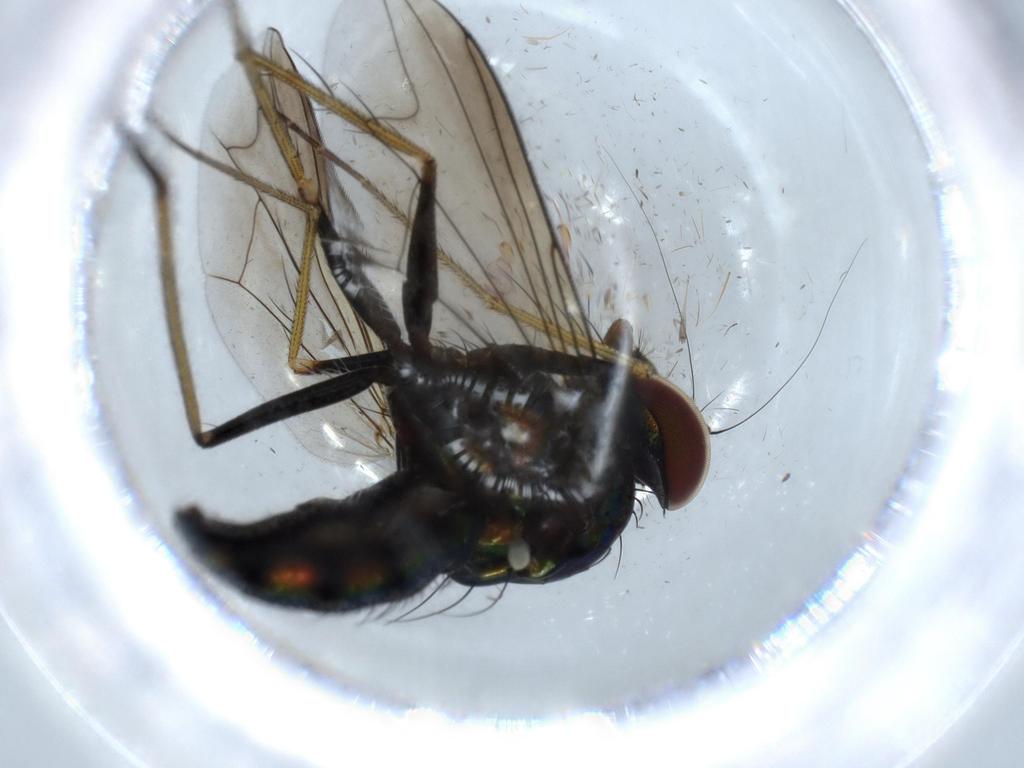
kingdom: Animalia
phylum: Arthropoda
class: Insecta
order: Diptera
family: Dolichopodidae
